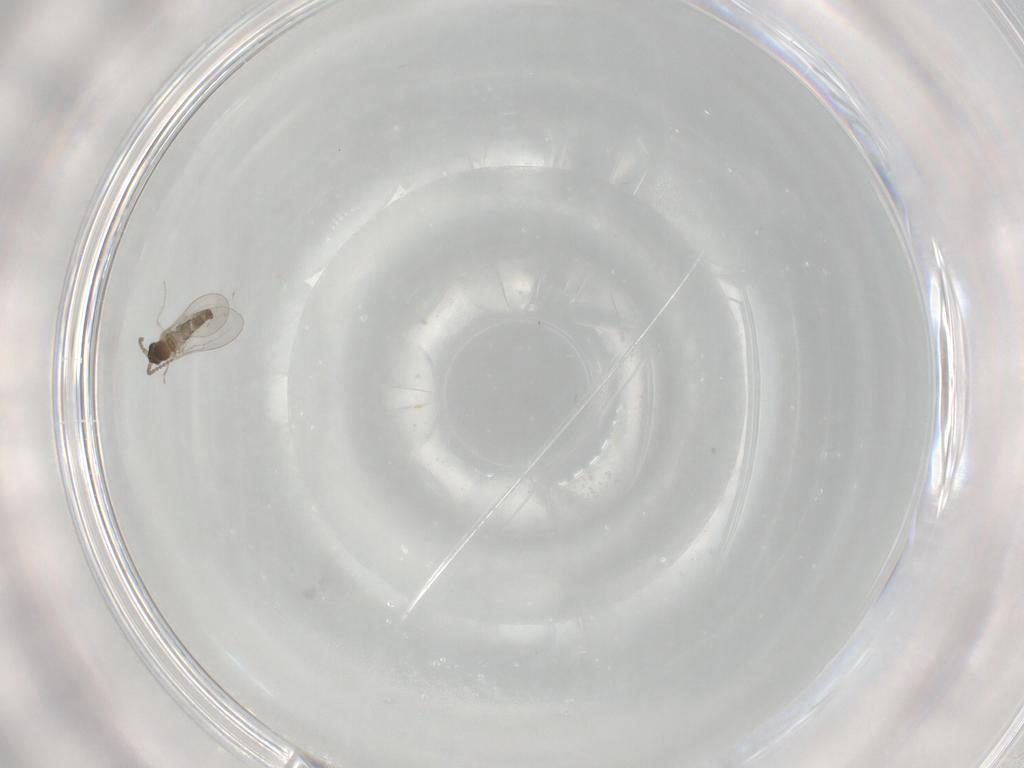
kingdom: Animalia
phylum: Arthropoda
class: Insecta
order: Diptera
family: Cecidomyiidae
